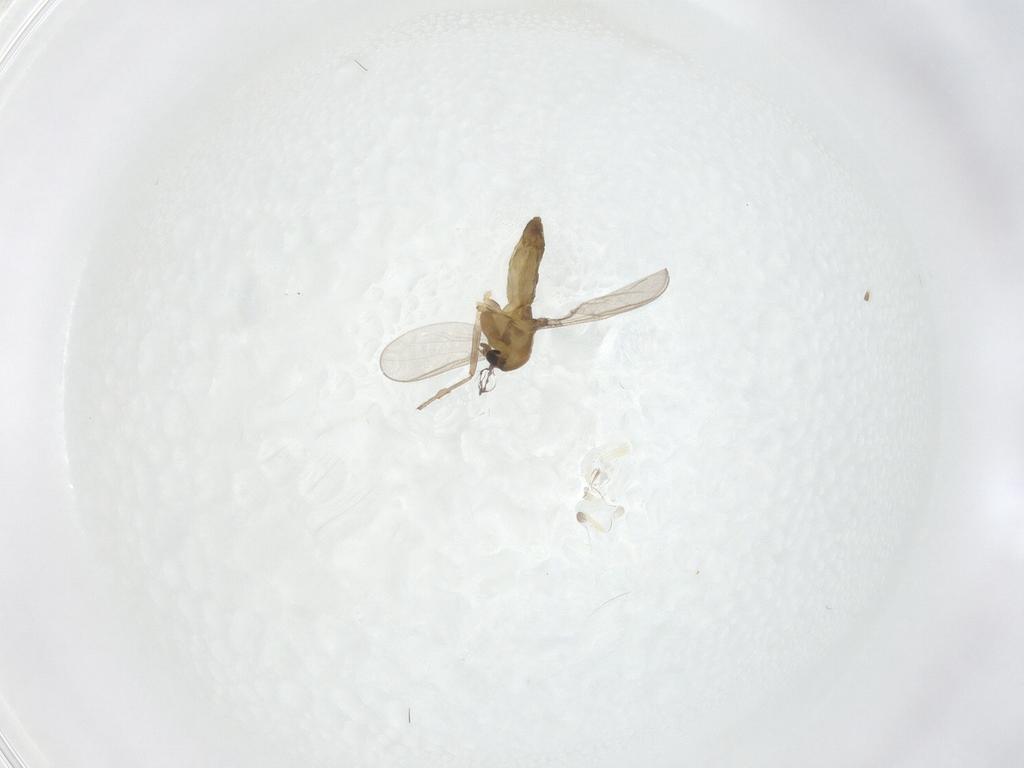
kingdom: Animalia
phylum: Arthropoda
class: Insecta
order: Diptera
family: Chironomidae
